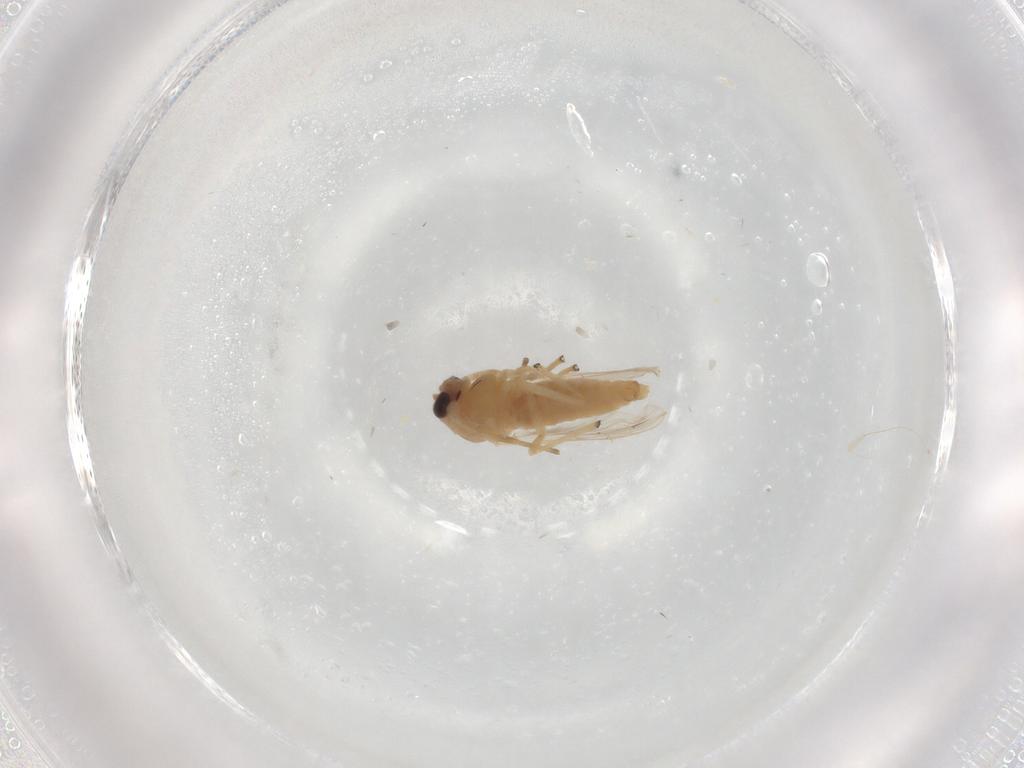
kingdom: Animalia
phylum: Arthropoda
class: Insecta
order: Diptera
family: Chironomidae
